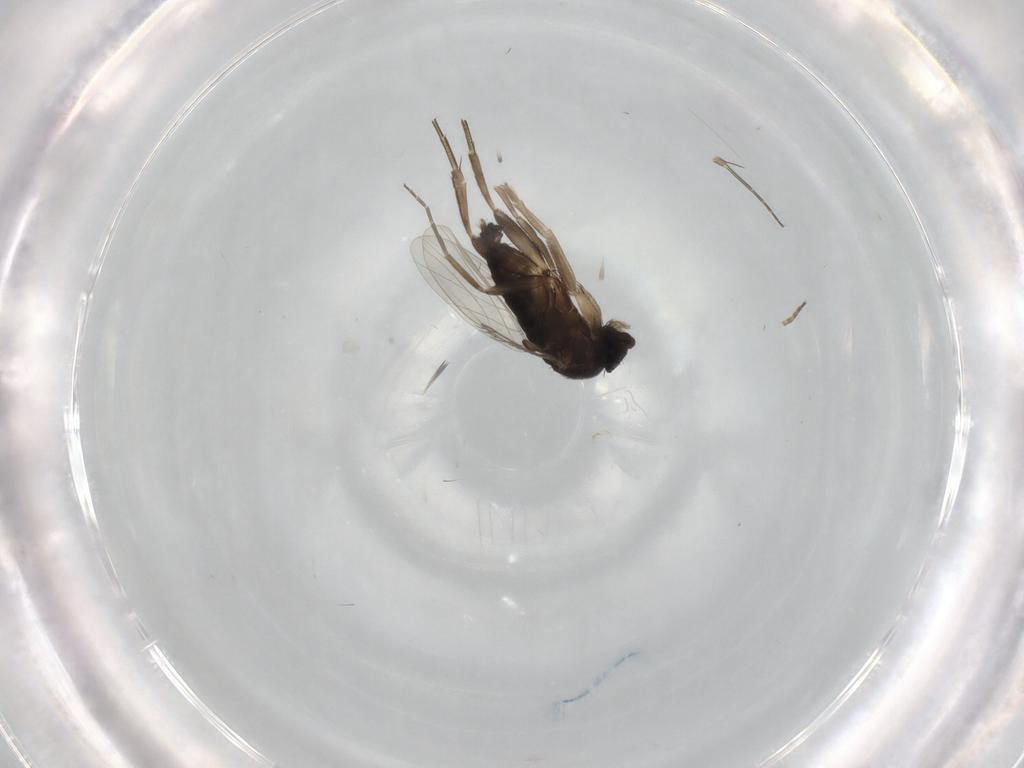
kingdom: Animalia
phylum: Arthropoda
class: Insecta
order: Diptera
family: Phoridae
